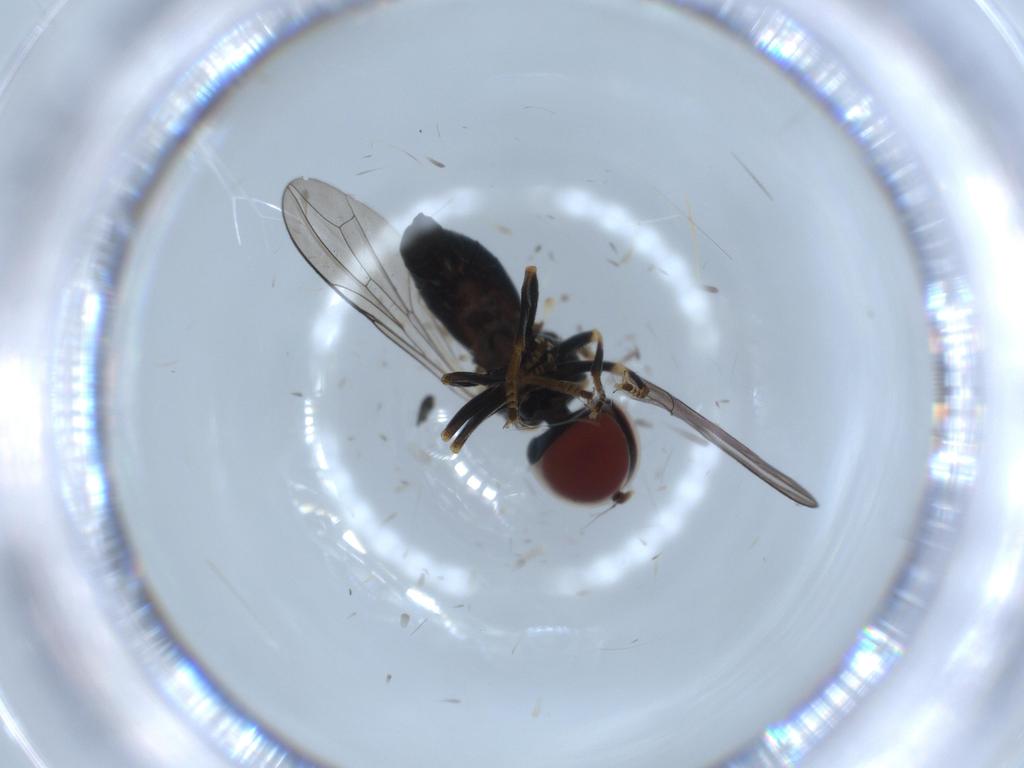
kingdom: Animalia
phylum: Arthropoda
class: Insecta
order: Diptera
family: Pipunculidae
